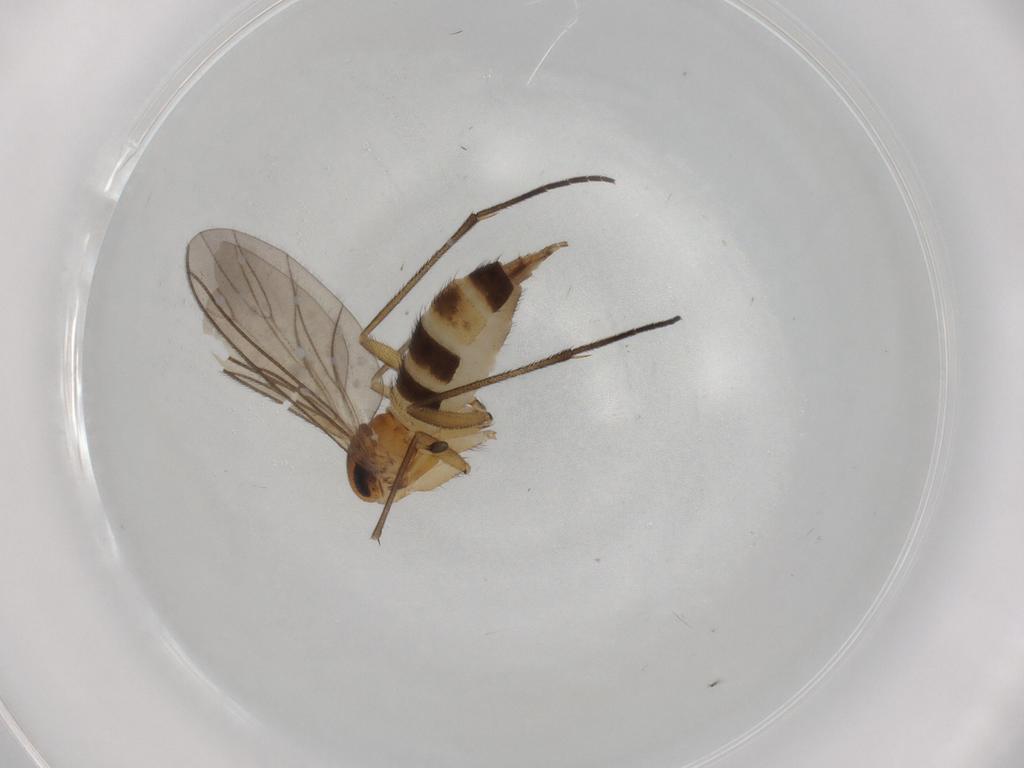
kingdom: Animalia
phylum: Arthropoda
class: Insecta
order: Diptera
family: Sciaridae
